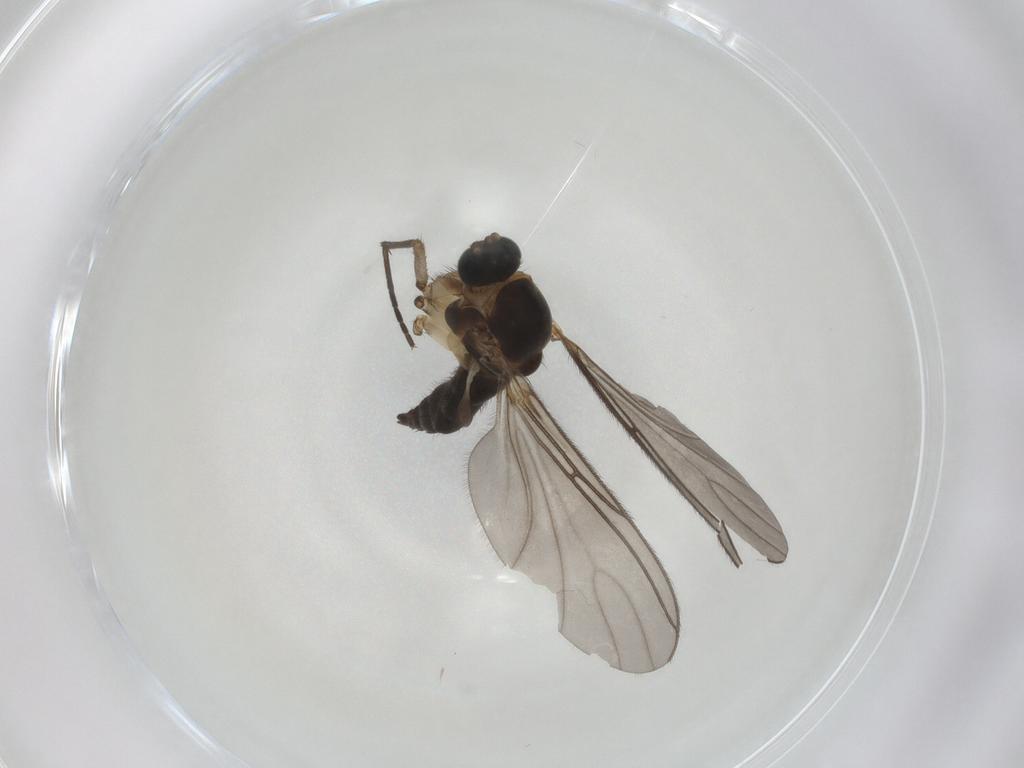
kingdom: Animalia
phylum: Arthropoda
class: Insecta
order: Diptera
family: Sciaridae
